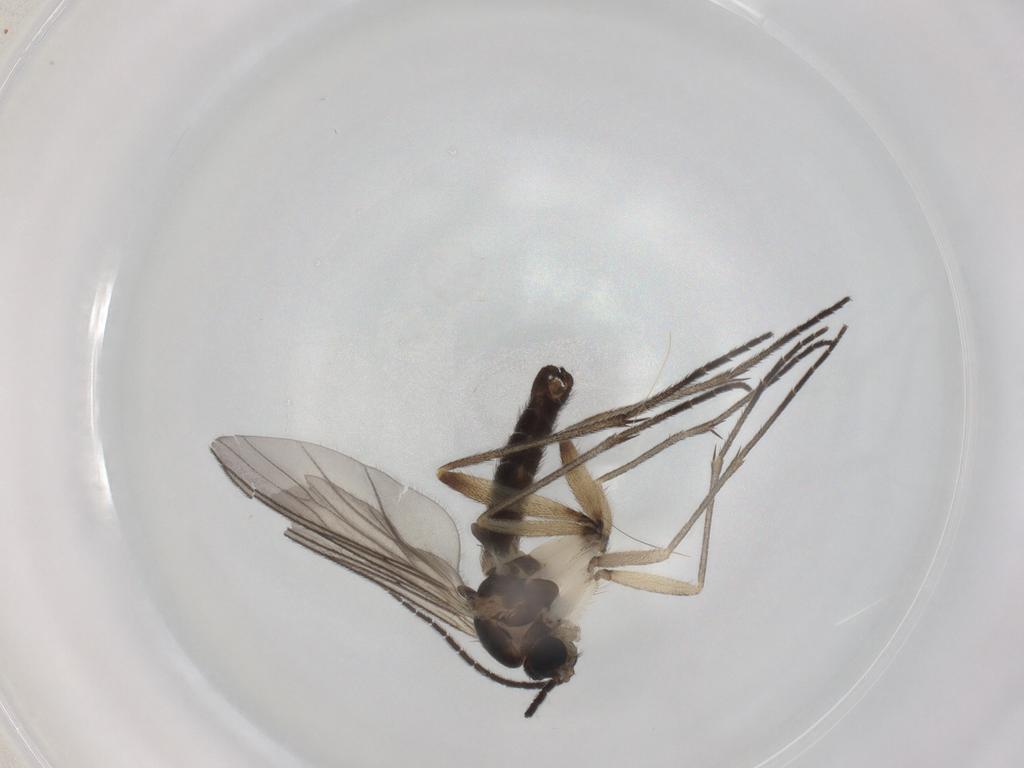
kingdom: Animalia
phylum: Arthropoda
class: Insecta
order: Diptera
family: Sciaridae
